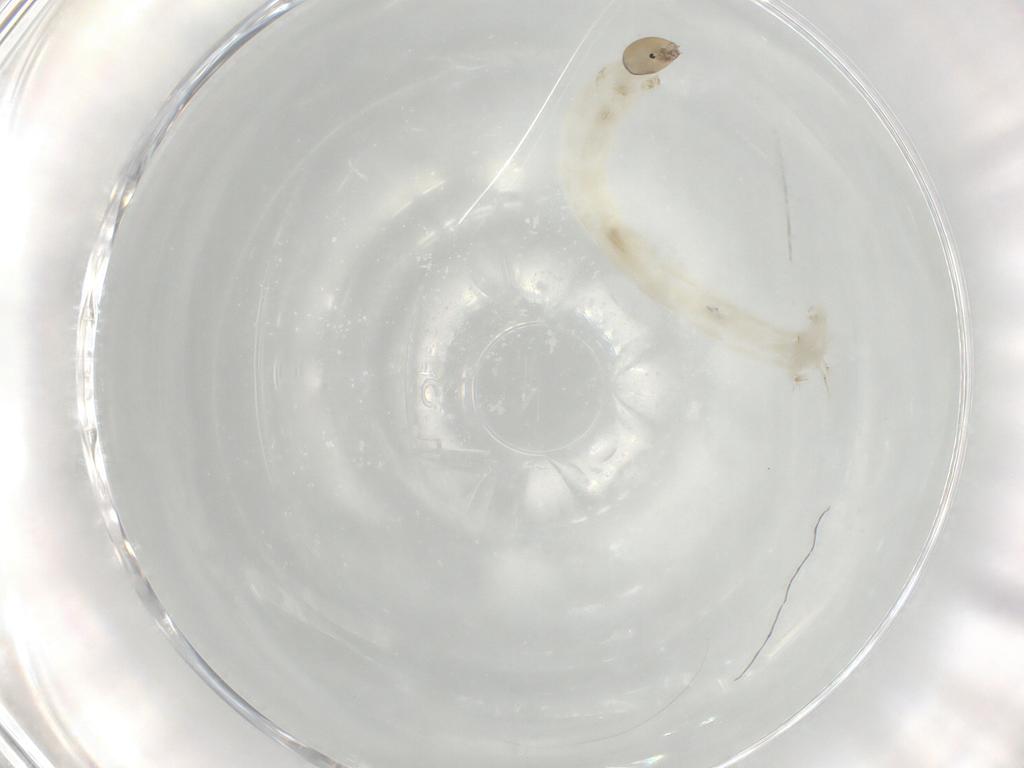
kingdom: Animalia
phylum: Arthropoda
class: Insecta
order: Diptera
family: Chironomidae
